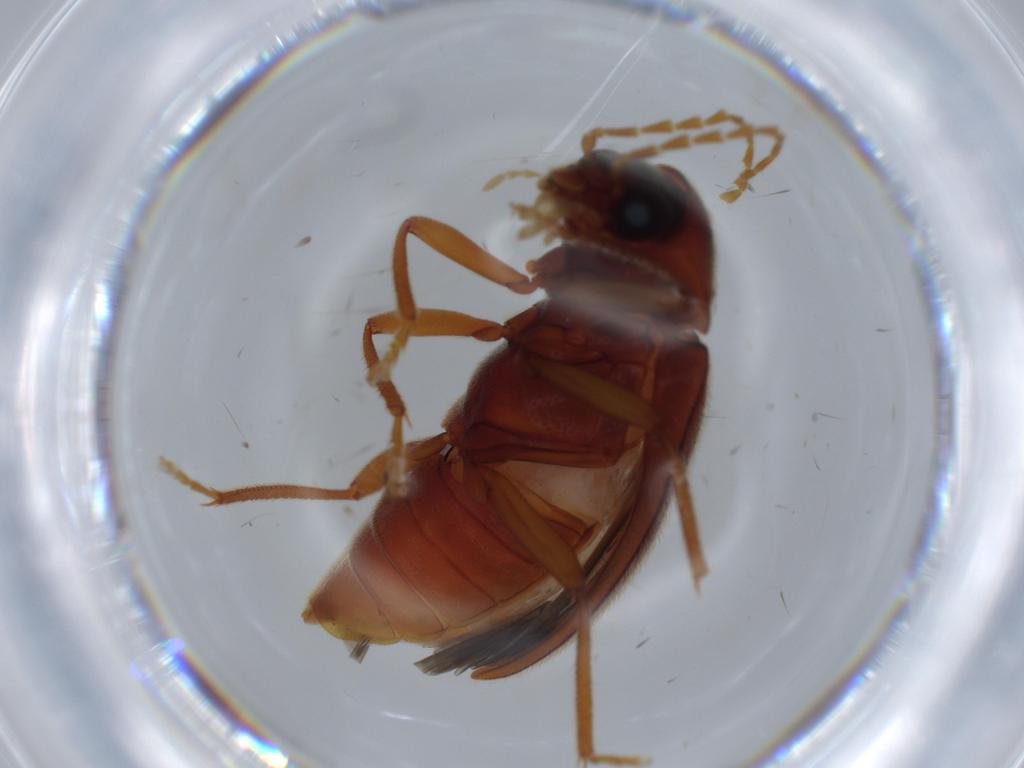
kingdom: Animalia
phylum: Arthropoda
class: Insecta
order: Coleoptera
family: Ptilodactylidae
